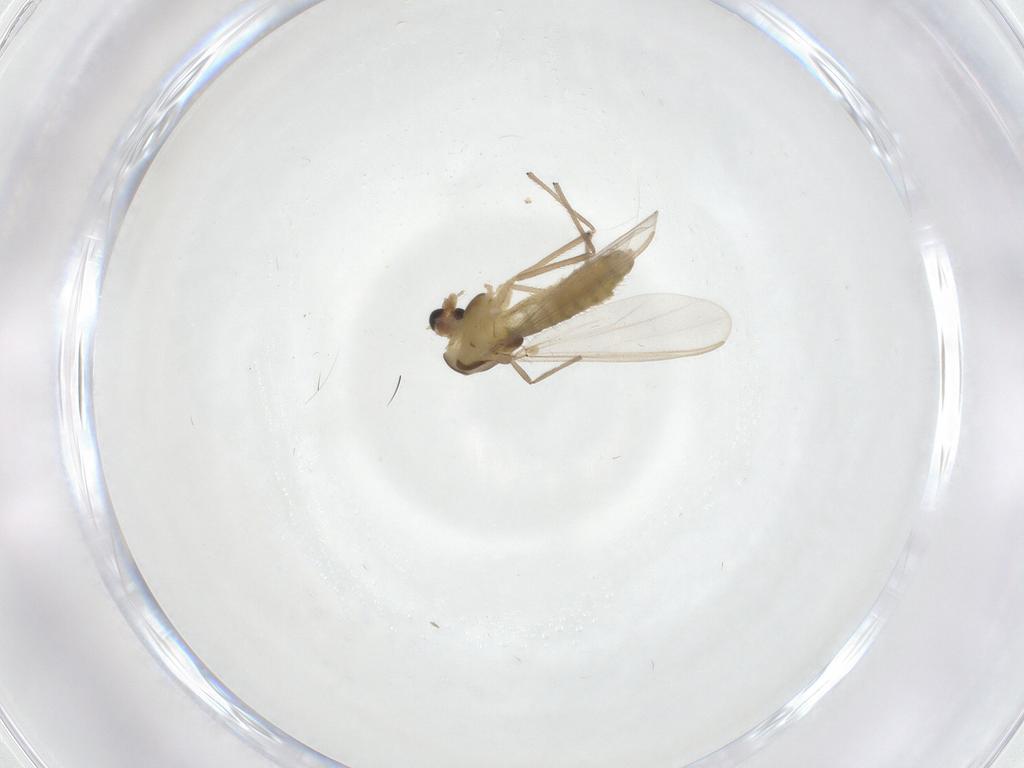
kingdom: Animalia
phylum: Arthropoda
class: Insecta
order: Diptera
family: Chironomidae
